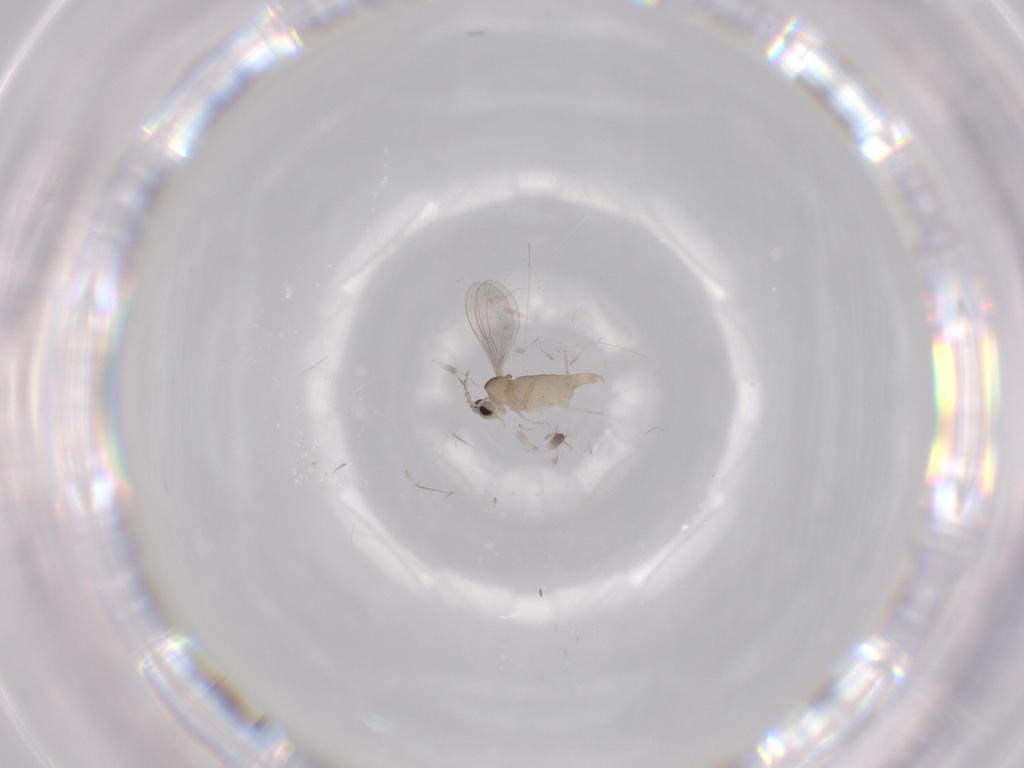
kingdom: Animalia
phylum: Arthropoda
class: Insecta
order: Diptera
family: Cecidomyiidae
